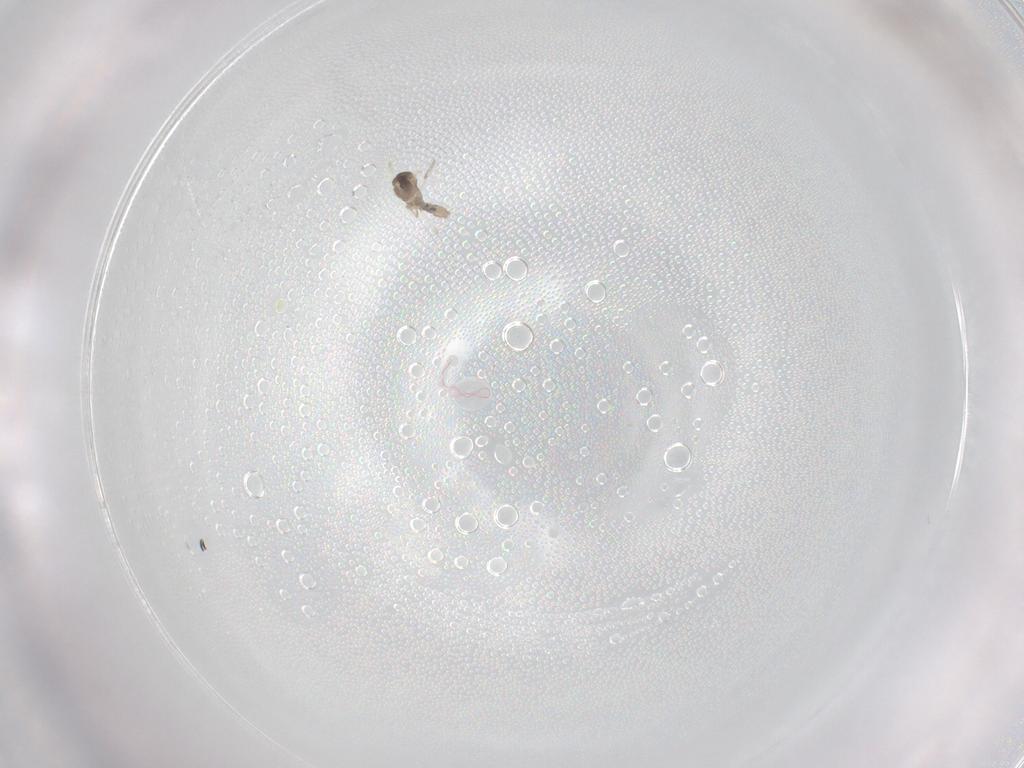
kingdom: Animalia
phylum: Arthropoda
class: Insecta
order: Diptera
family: Cecidomyiidae
